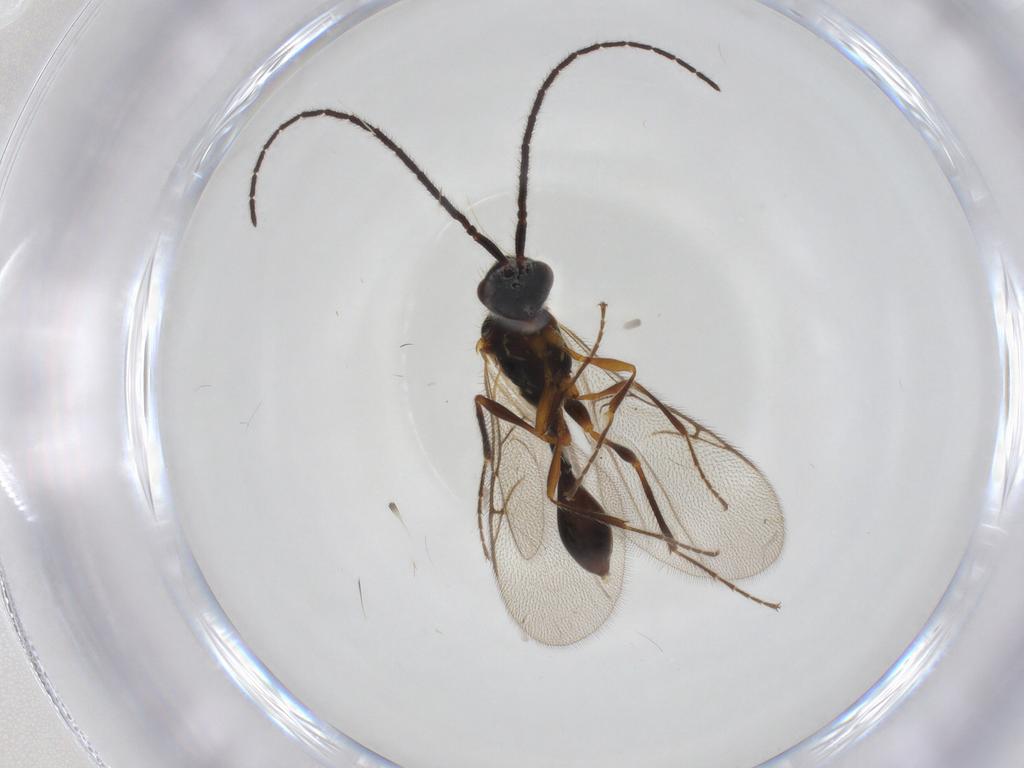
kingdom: Animalia
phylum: Arthropoda
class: Insecta
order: Hymenoptera
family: Diapriidae
